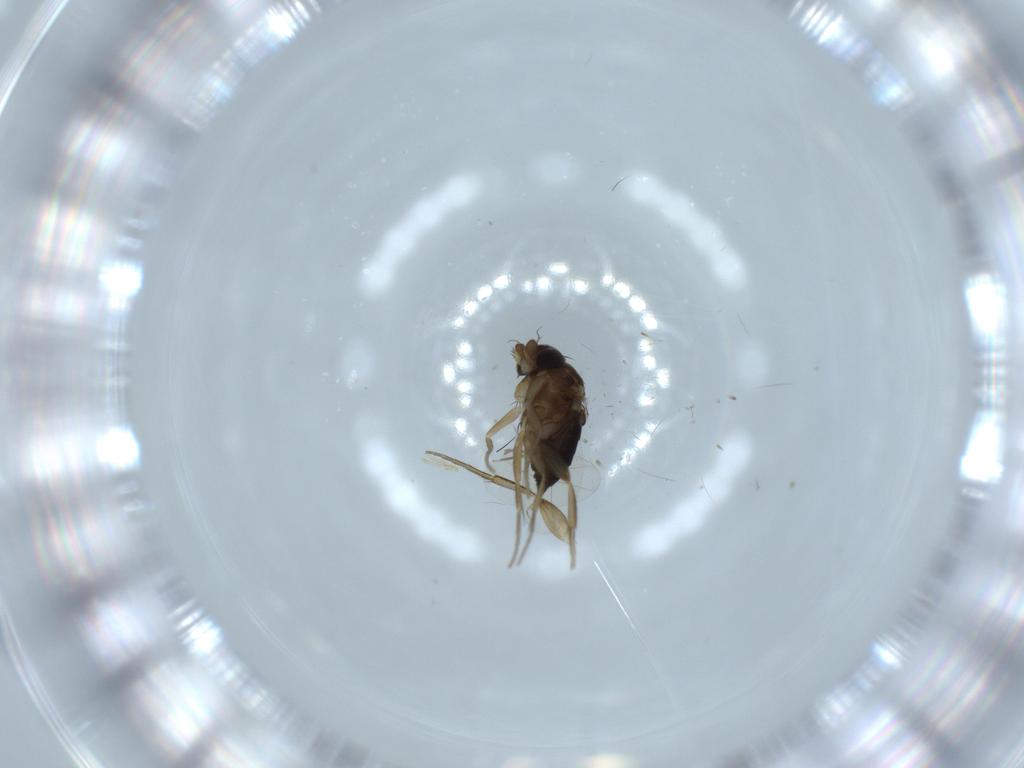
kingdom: Animalia
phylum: Arthropoda
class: Insecta
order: Diptera
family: Phoridae
